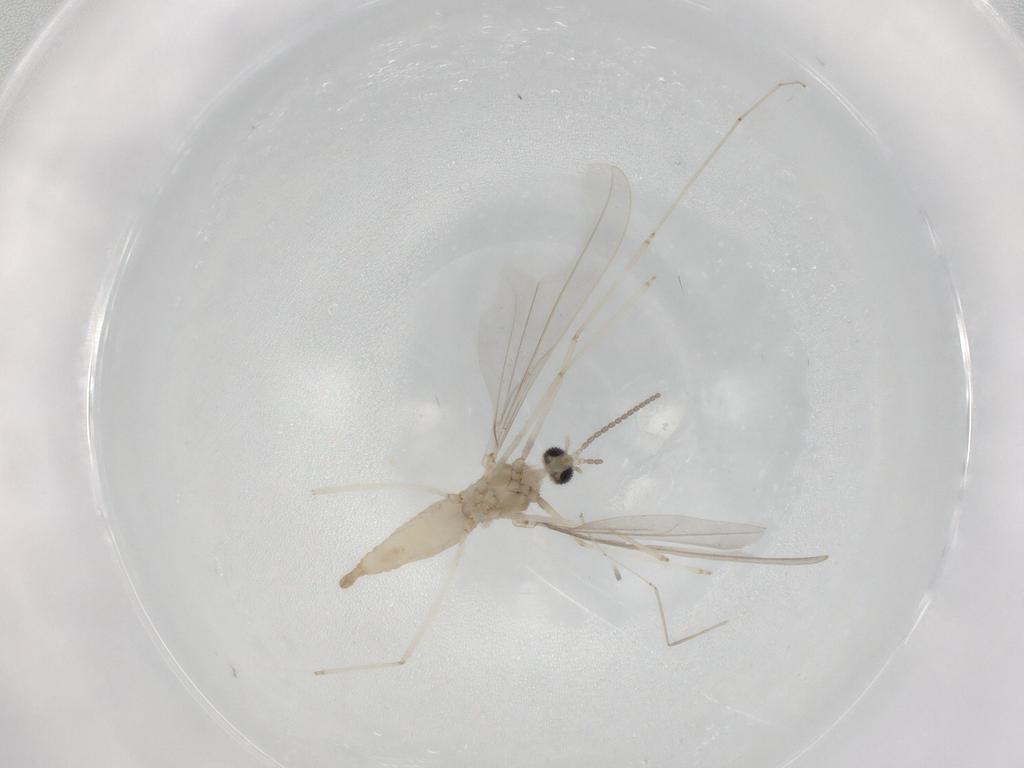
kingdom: Animalia
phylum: Arthropoda
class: Insecta
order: Diptera
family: Cecidomyiidae
